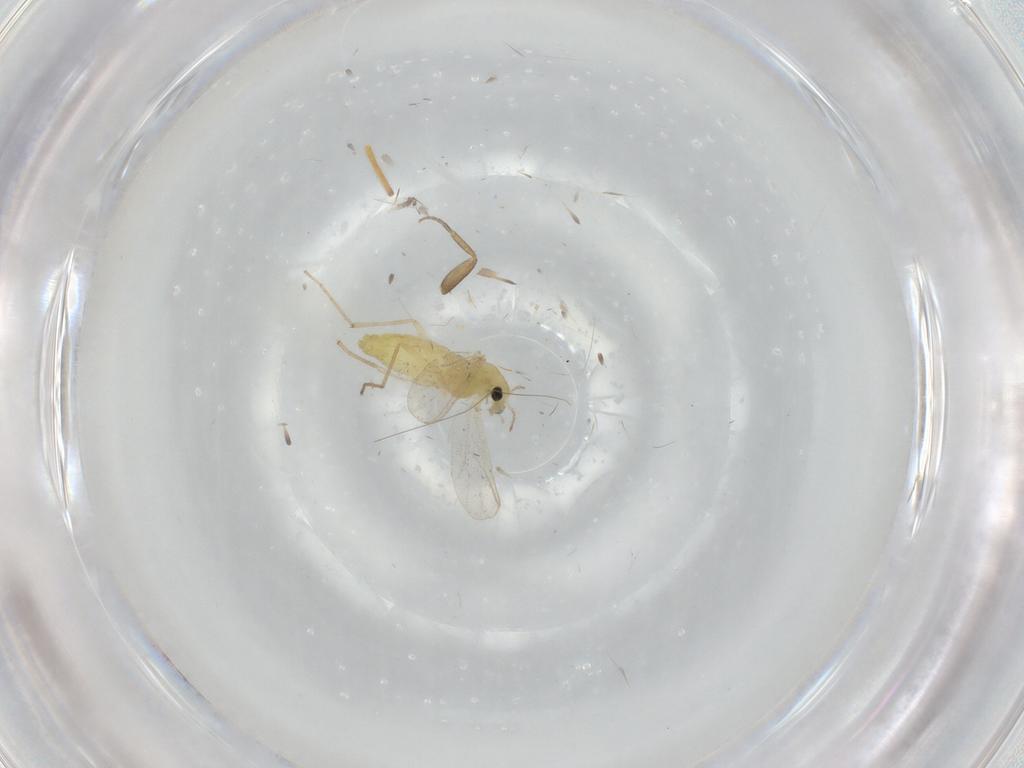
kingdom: Animalia
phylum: Arthropoda
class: Insecta
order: Diptera
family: Chironomidae
